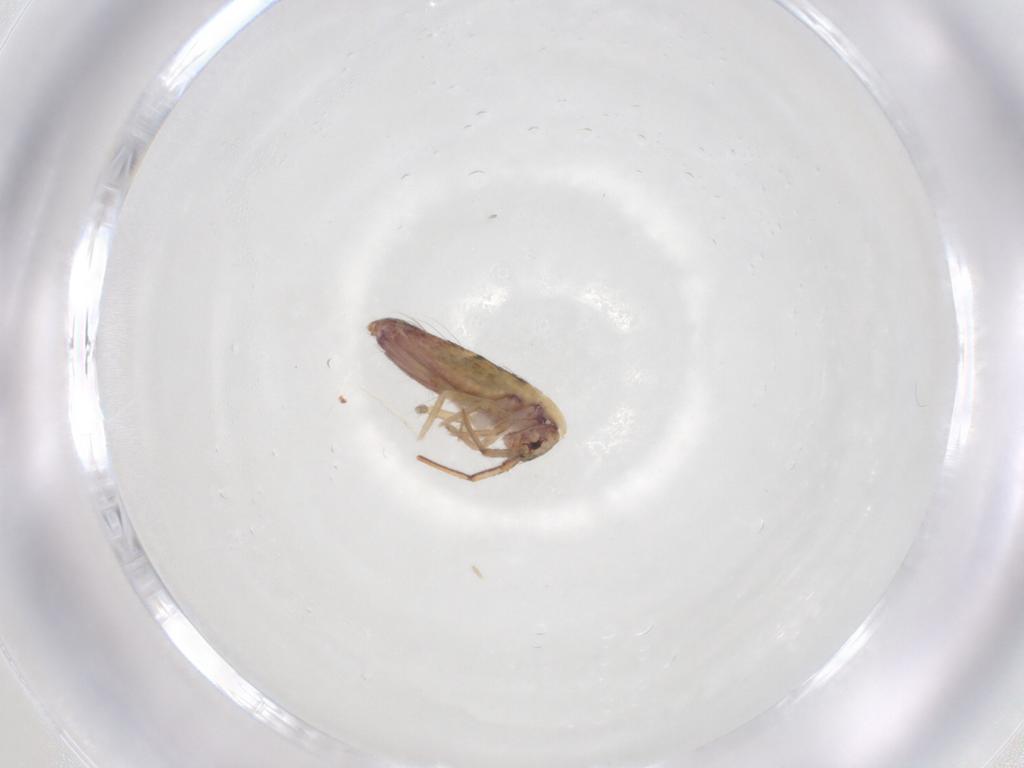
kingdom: Animalia
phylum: Arthropoda
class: Collembola
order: Entomobryomorpha
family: Entomobryidae
